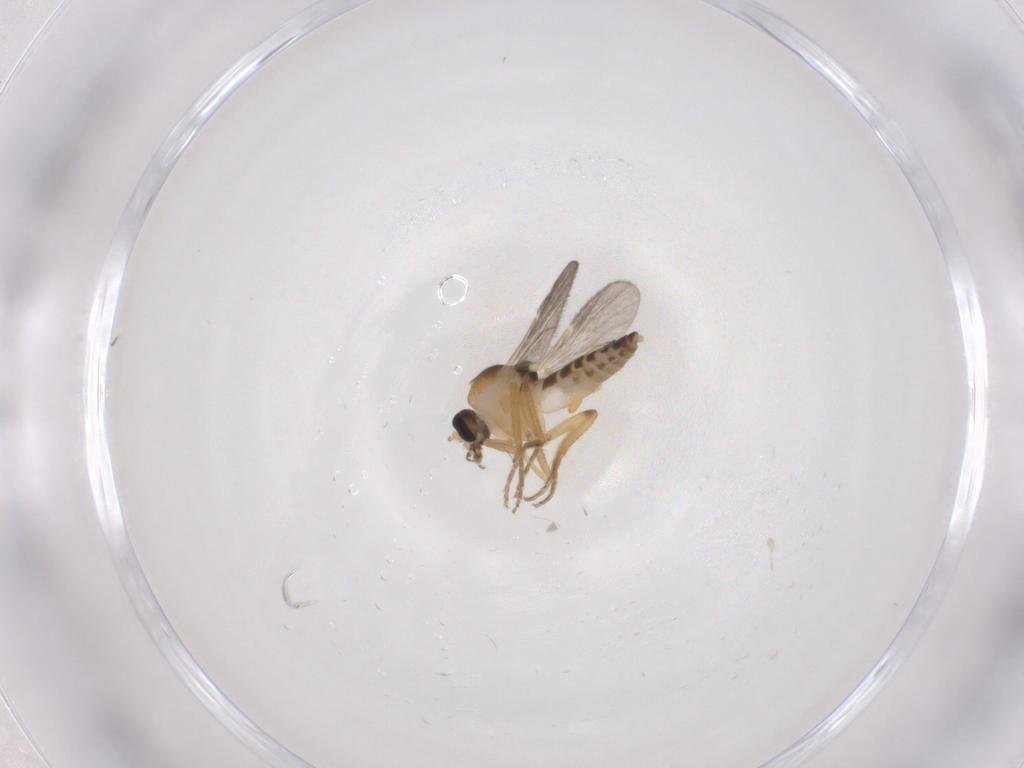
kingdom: Animalia
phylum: Arthropoda
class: Insecta
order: Diptera
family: Ceratopogonidae
